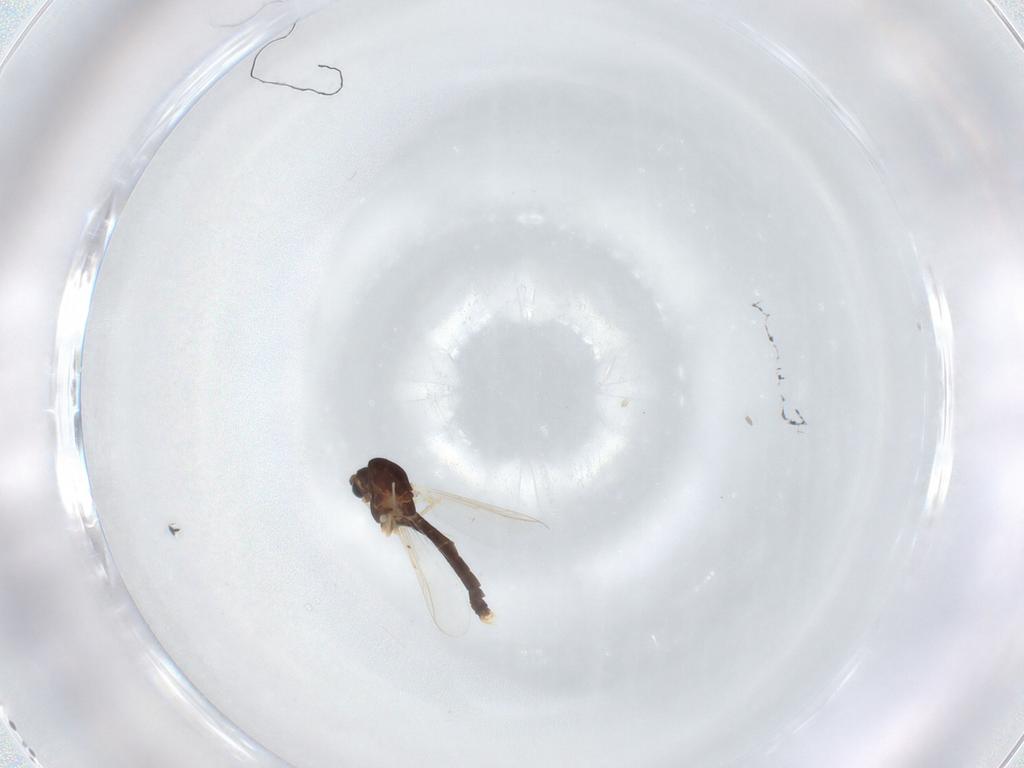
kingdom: Animalia
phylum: Arthropoda
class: Insecta
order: Diptera
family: Chironomidae
